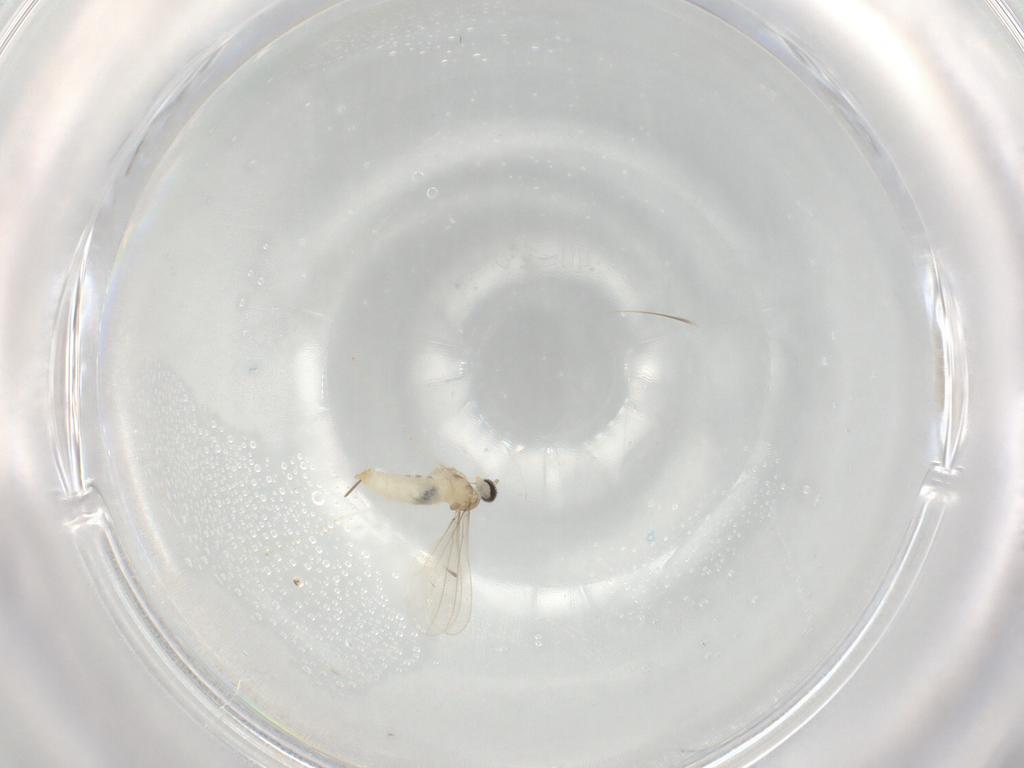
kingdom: Animalia
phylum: Arthropoda
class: Insecta
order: Diptera
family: Cecidomyiidae
